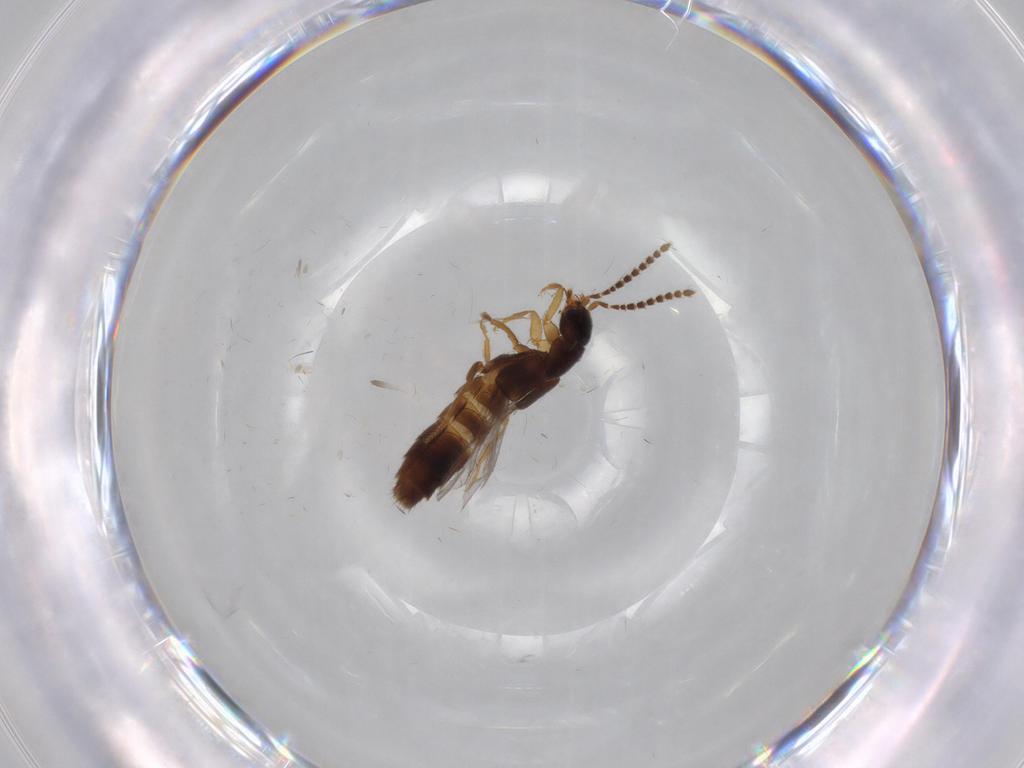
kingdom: Animalia
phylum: Arthropoda
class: Insecta
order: Coleoptera
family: Staphylinidae
